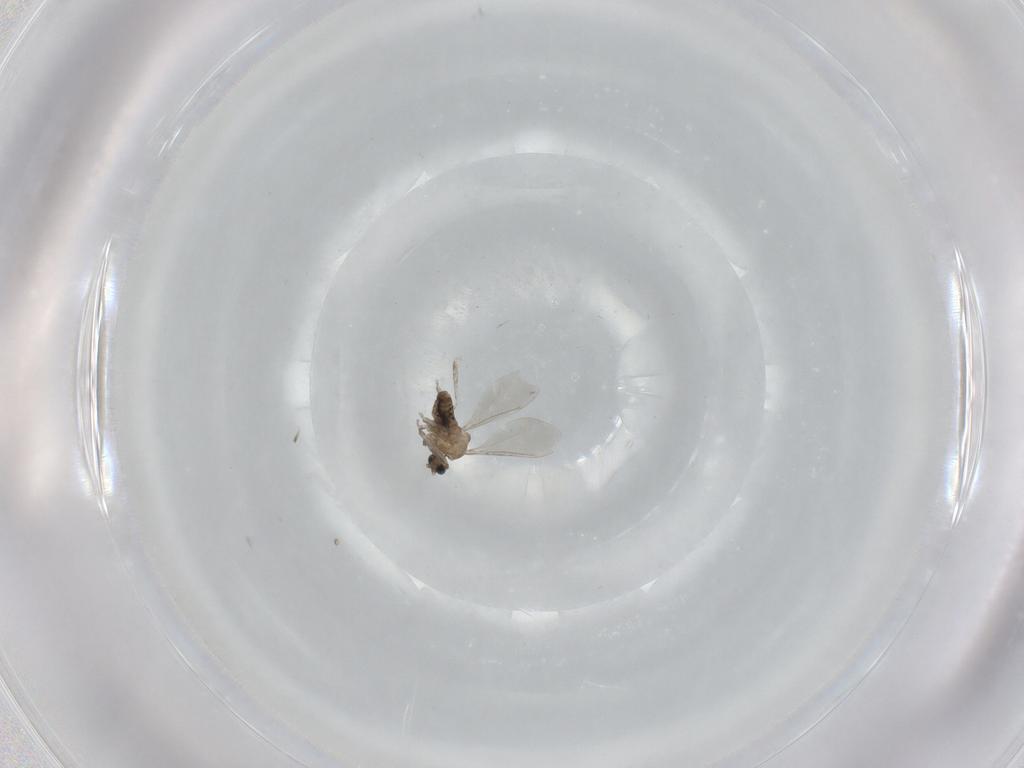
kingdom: Animalia
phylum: Arthropoda
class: Insecta
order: Diptera
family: Cecidomyiidae
